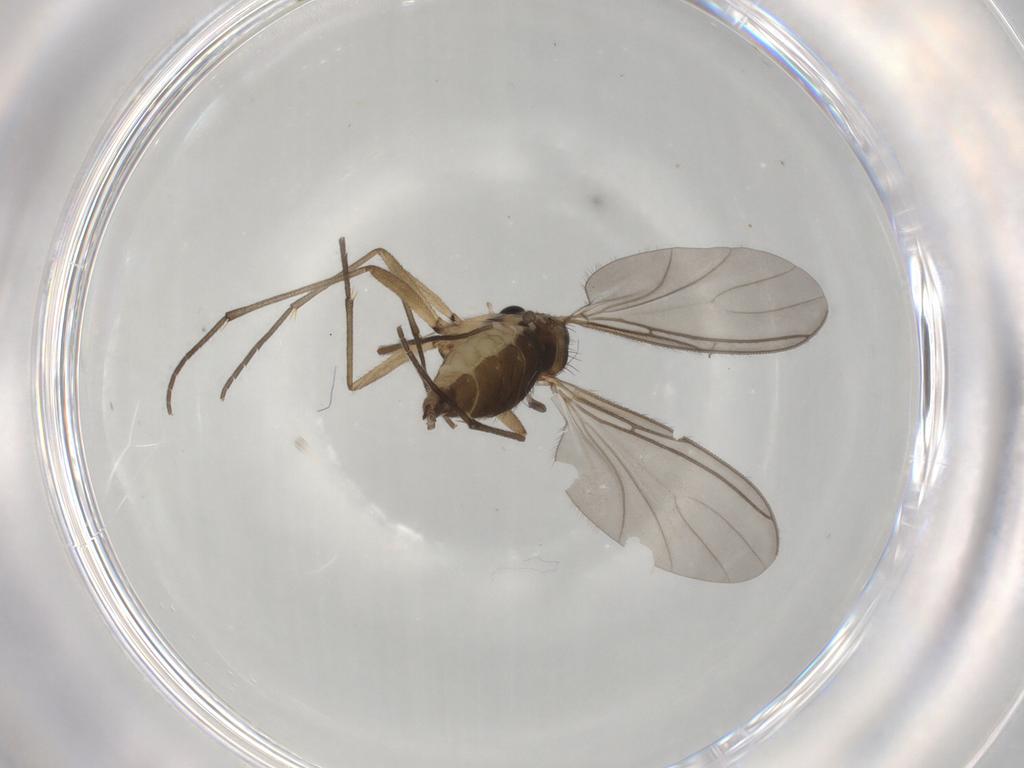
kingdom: Animalia
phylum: Arthropoda
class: Insecta
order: Diptera
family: Sciaridae
